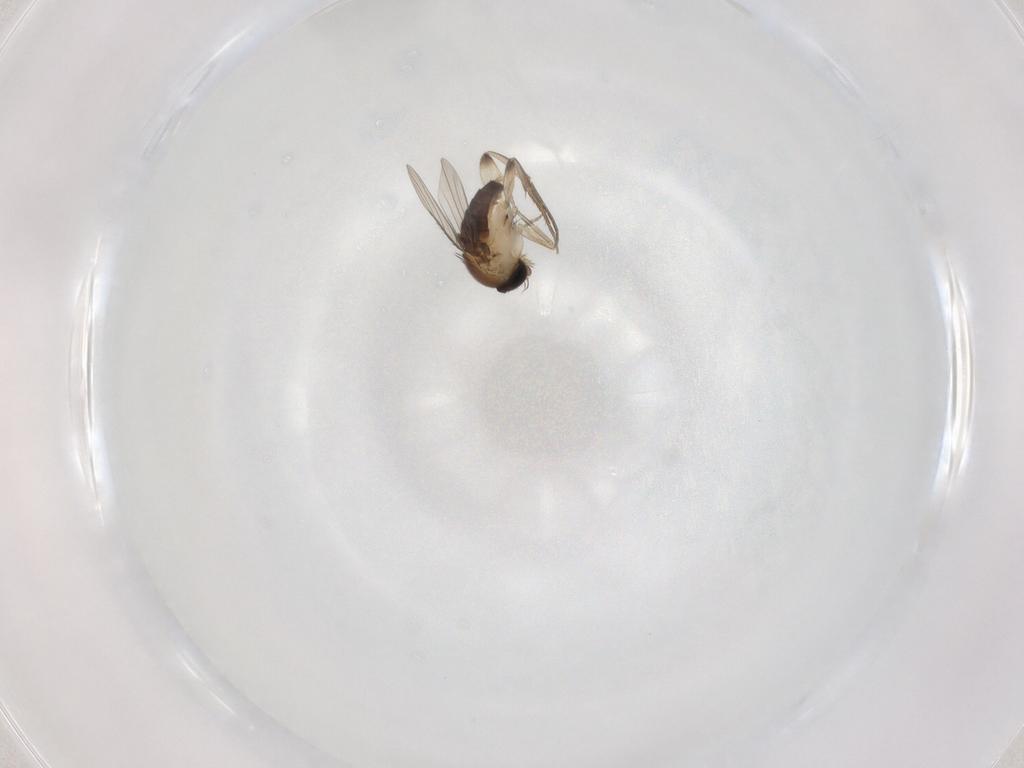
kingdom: Animalia
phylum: Arthropoda
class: Insecta
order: Diptera
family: Phoridae
